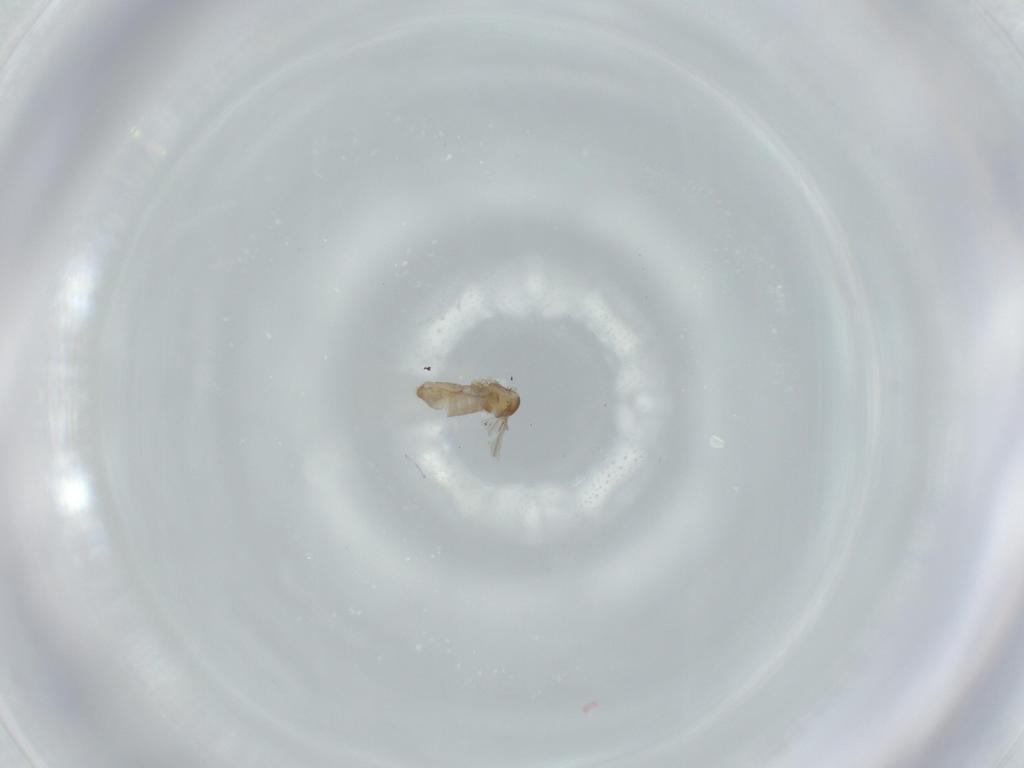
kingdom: Animalia
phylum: Arthropoda
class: Insecta
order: Diptera
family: Cecidomyiidae
